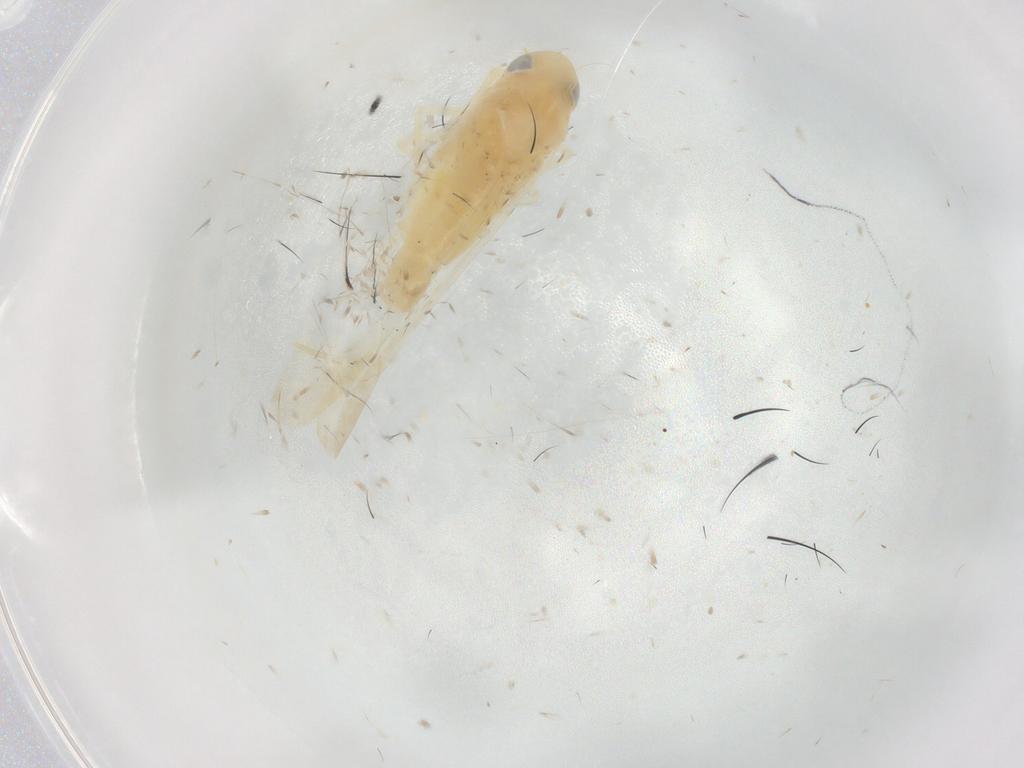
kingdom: Animalia
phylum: Arthropoda
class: Insecta
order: Hemiptera
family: Cicadellidae
